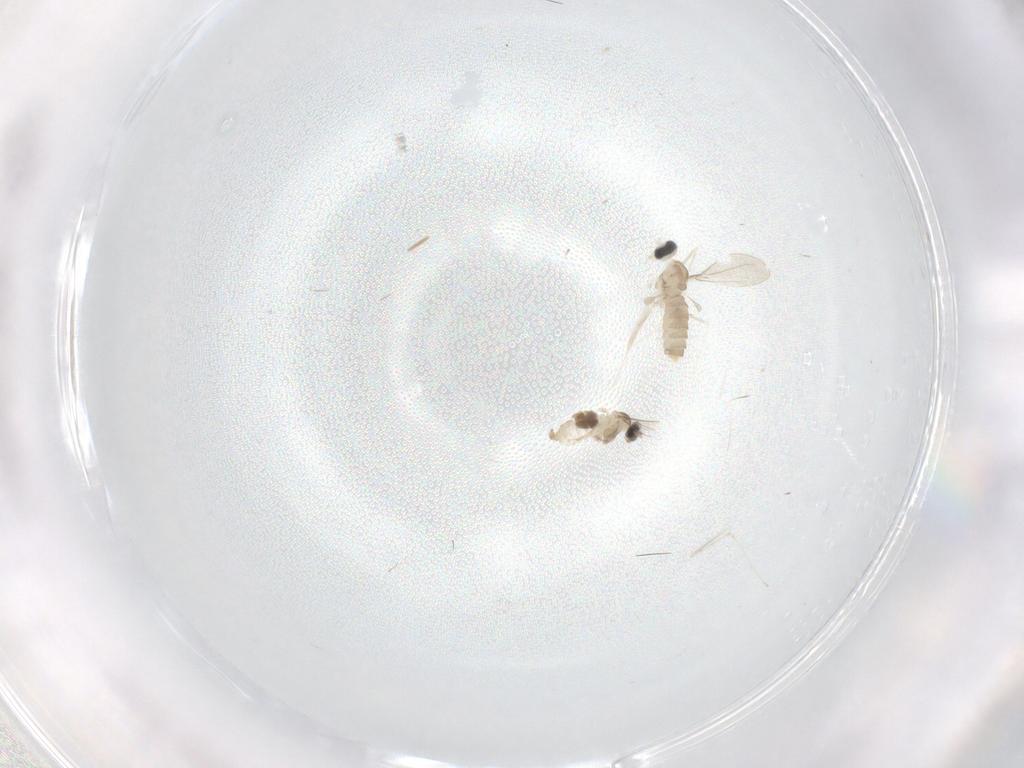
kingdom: Animalia
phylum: Arthropoda
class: Insecta
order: Diptera
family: Cecidomyiidae
